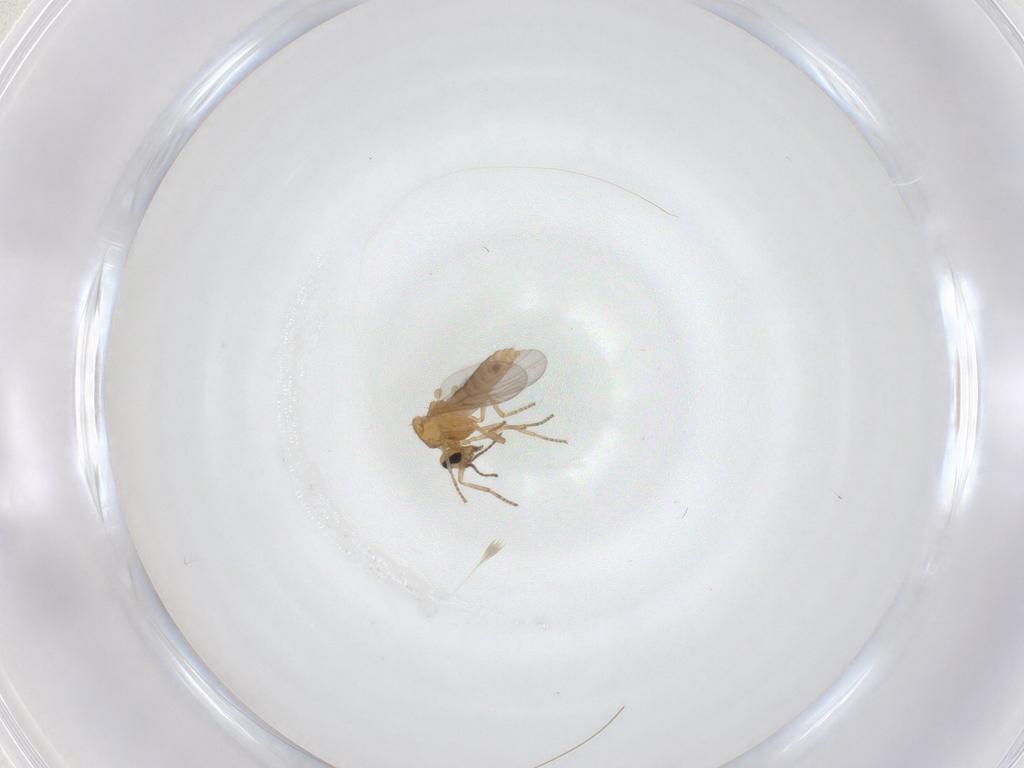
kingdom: Animalia
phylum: Arthropoda
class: Insecta
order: Diptera
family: Ceratopogonidae
